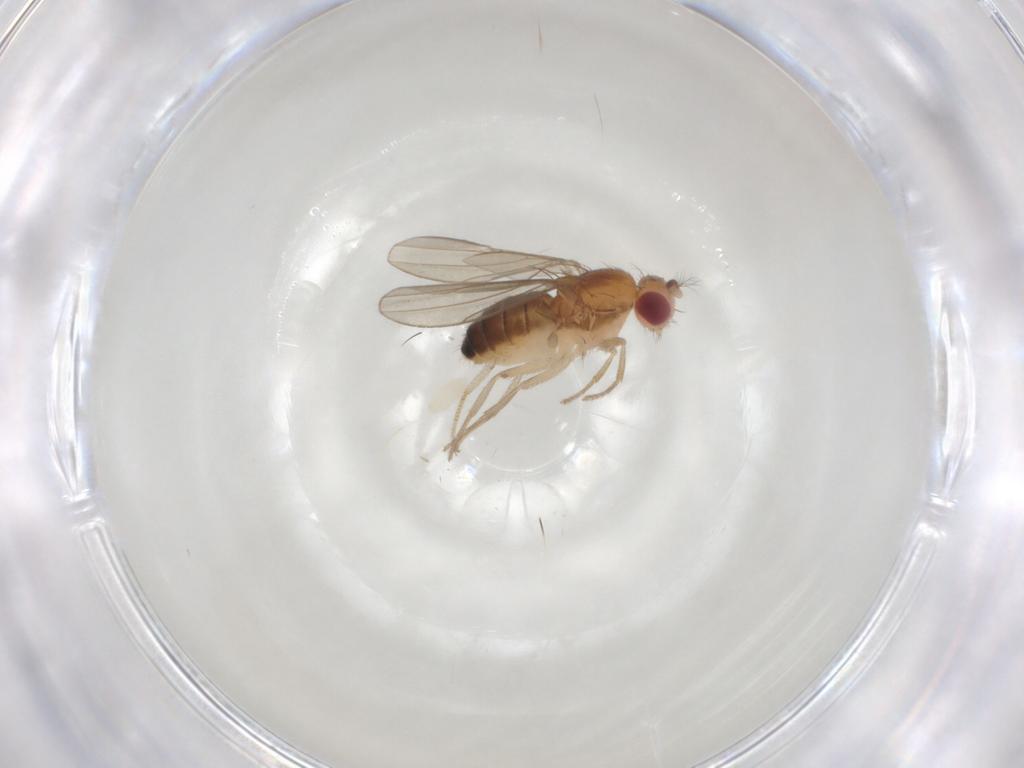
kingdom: Animalia
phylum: Arthropoda
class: Insecta
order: Diptera
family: Drosophilidae
